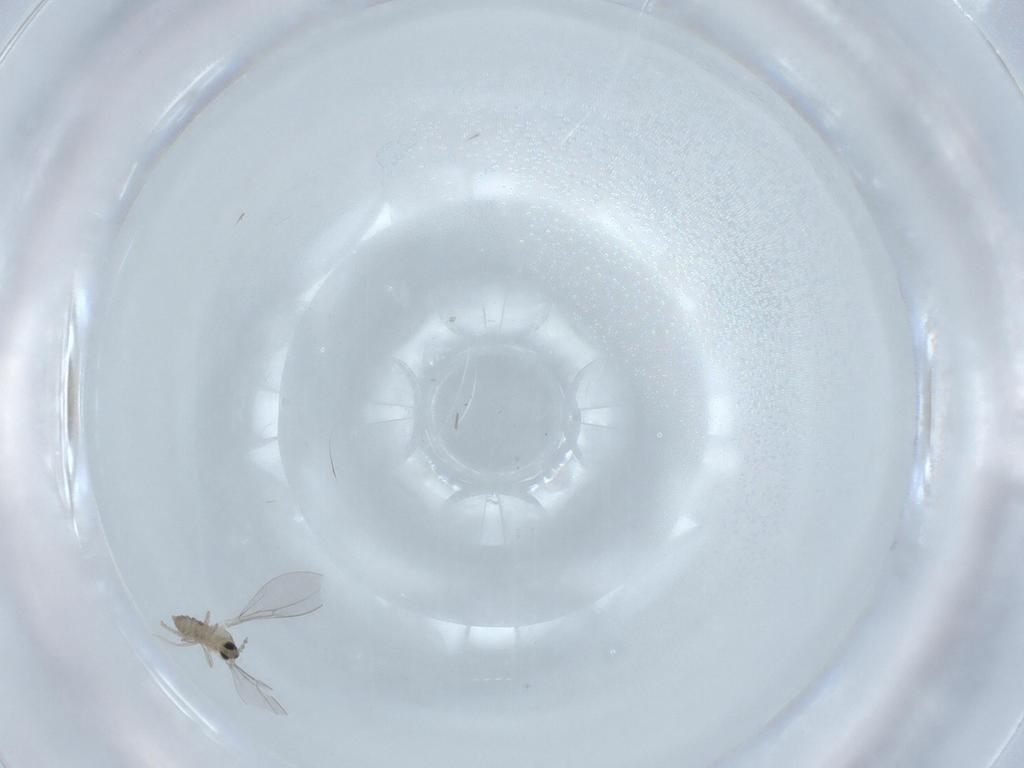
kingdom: Animalia
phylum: Arthropoda
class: Insecta
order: Diptera
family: Cecidomyiidae
